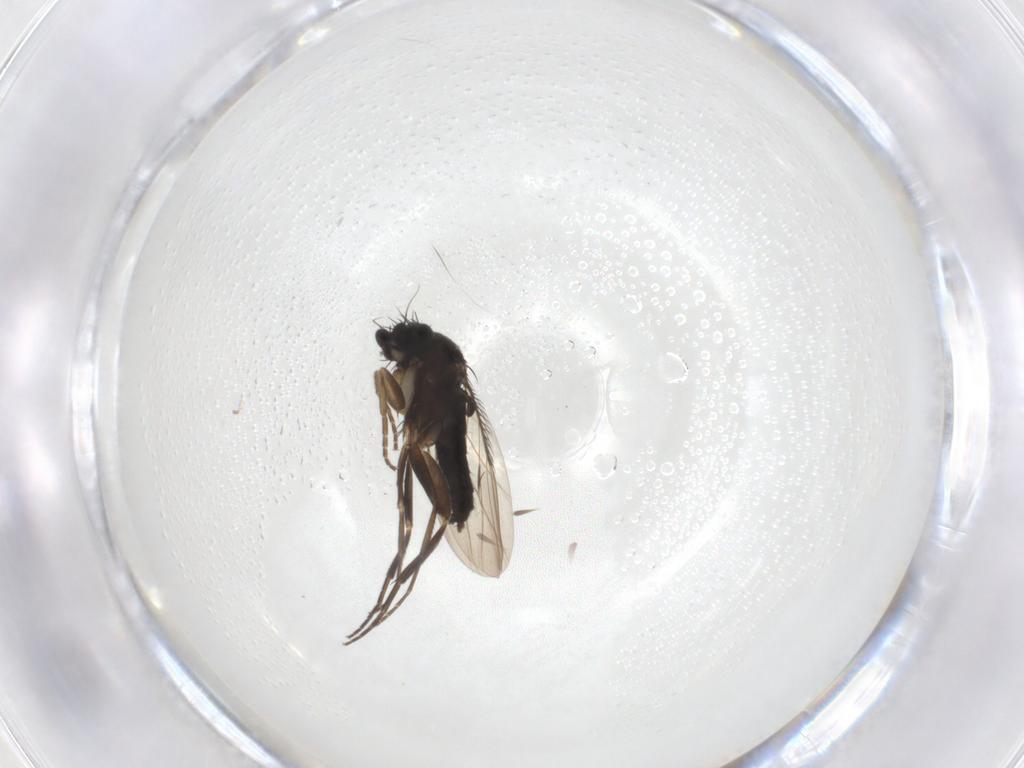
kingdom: Animalia
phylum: Arthropoda
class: Insecta
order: Diptera
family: Phoridae
